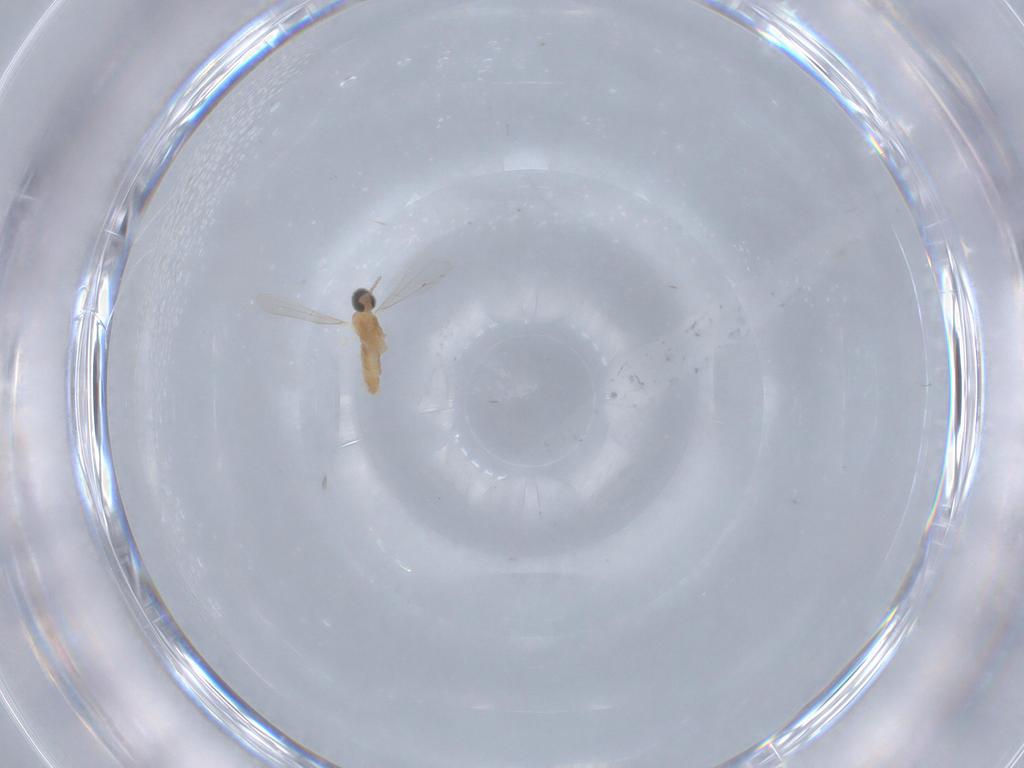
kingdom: Animalia
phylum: Arthropoda
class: Insecta
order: Diptera
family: Cecidomyiidae
